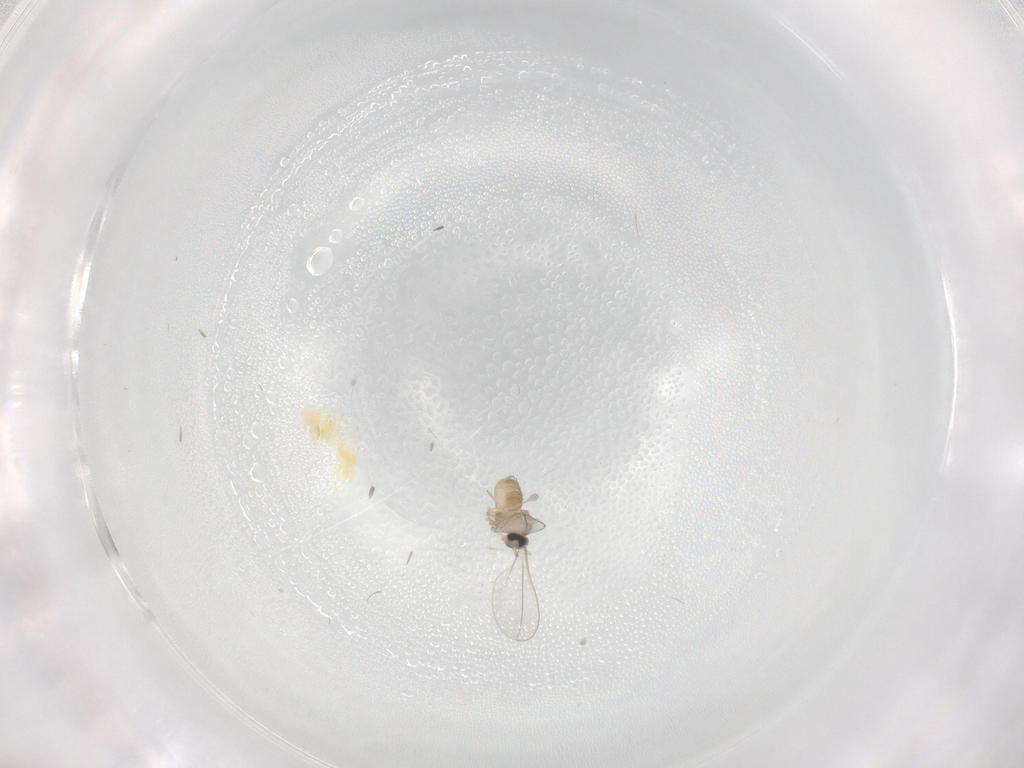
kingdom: Animalia
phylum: Arthropoda
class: Insecta
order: Diptera
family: Cecidomyiidae
